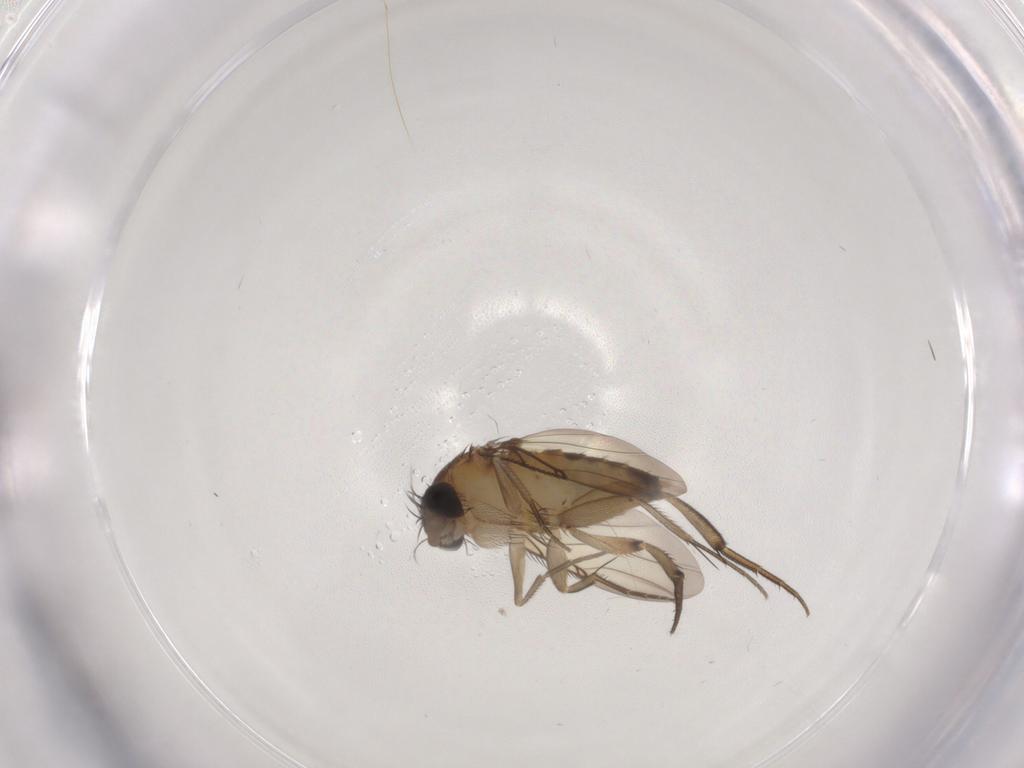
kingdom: Animalia
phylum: Arthropoda
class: Insecta
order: Diptera
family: Phoridae
